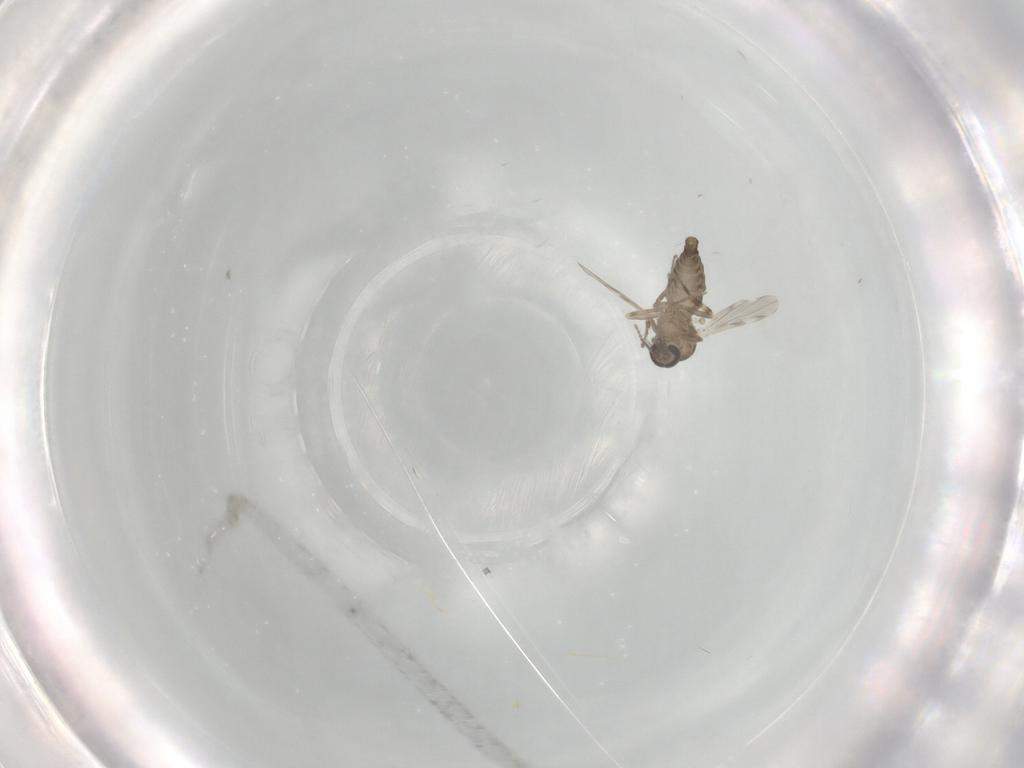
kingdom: Animalia
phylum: Arthropoda
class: Insecta
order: Diptera
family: Ceratopogonidae
